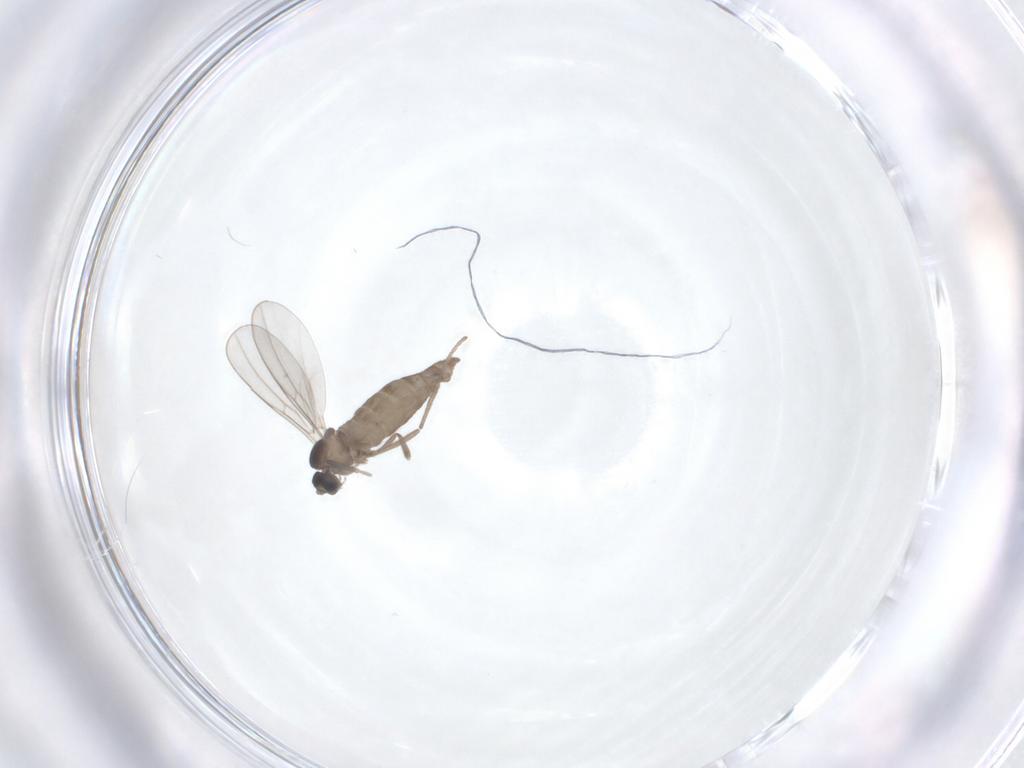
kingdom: Animalia
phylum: Arthropoda
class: Insecta
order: Diptera
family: Cecidomyiidae
